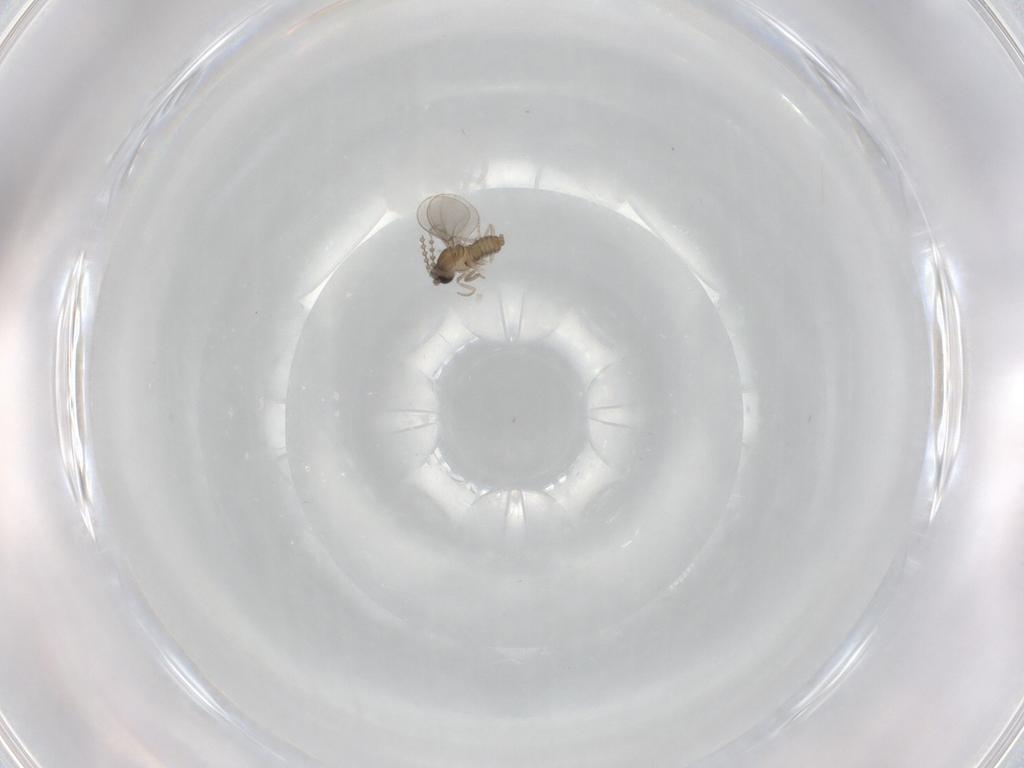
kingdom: Animalia
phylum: Arthropoda
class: Insecta
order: Diptera
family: Cecidomyiidae
